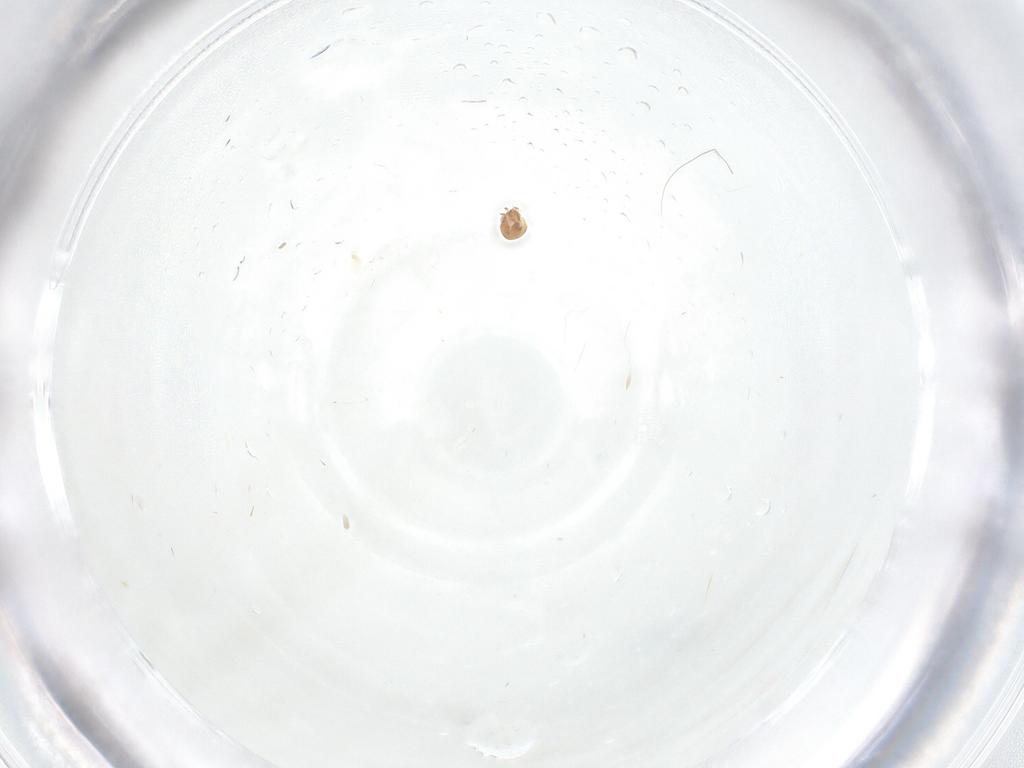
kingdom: Animalia
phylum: Arthropoda
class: Insecta
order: Diptera
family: Psychodidae
